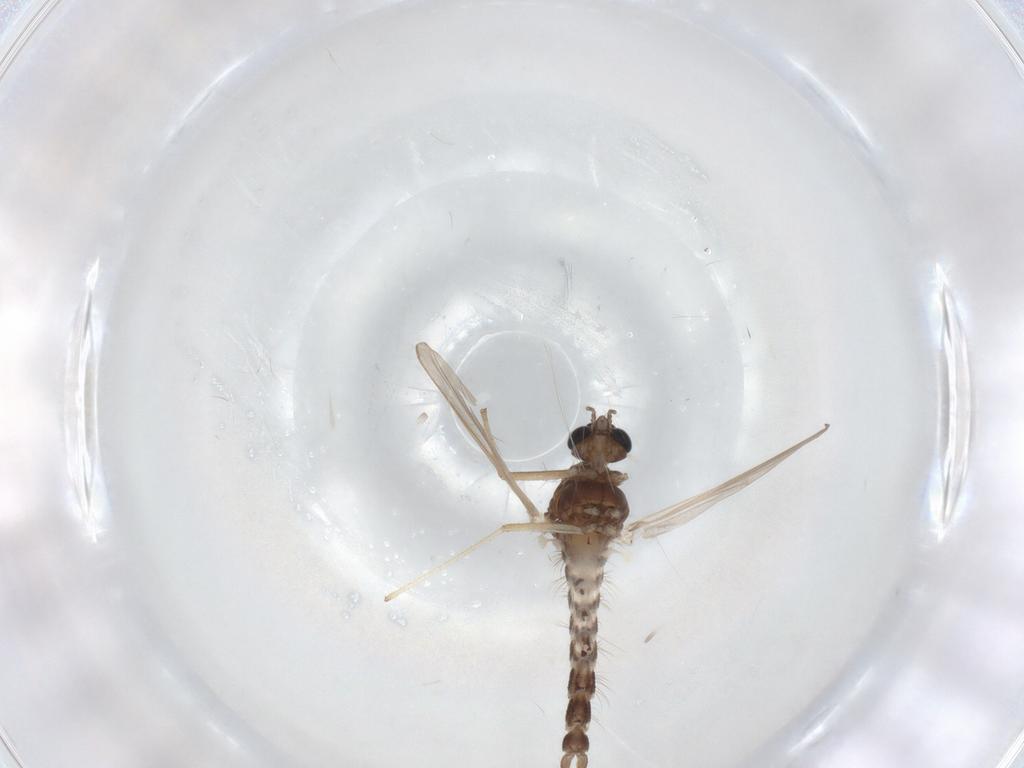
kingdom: Animalia
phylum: Arthropoda
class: Insecta
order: Diptera
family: Chironomidae
